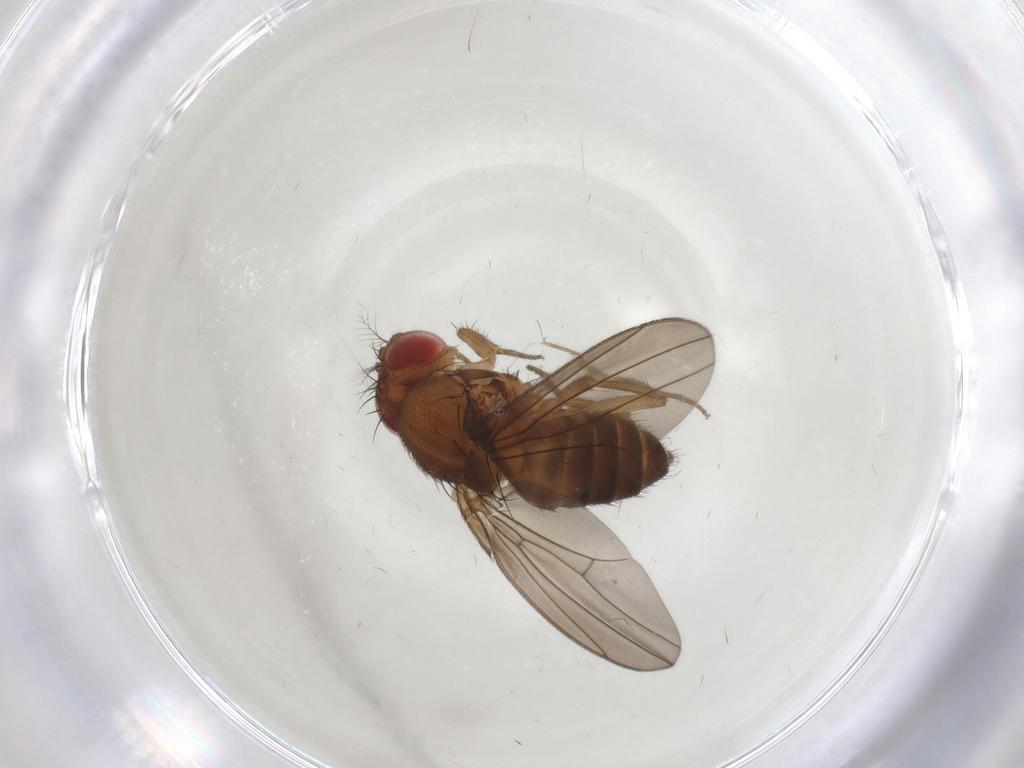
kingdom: Animalia
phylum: Arthropoda
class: Insecta
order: Diptera
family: Drosophilidae
